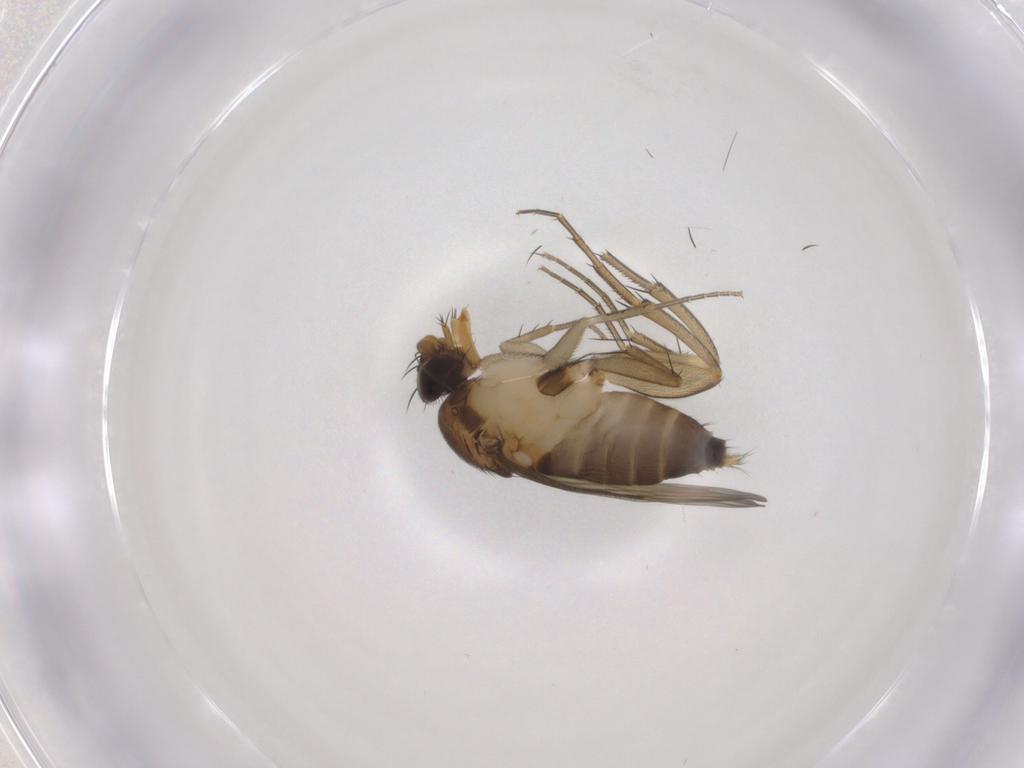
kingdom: Animalia
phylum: Arthropoda
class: Insecta
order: Diptera
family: Phoridae
